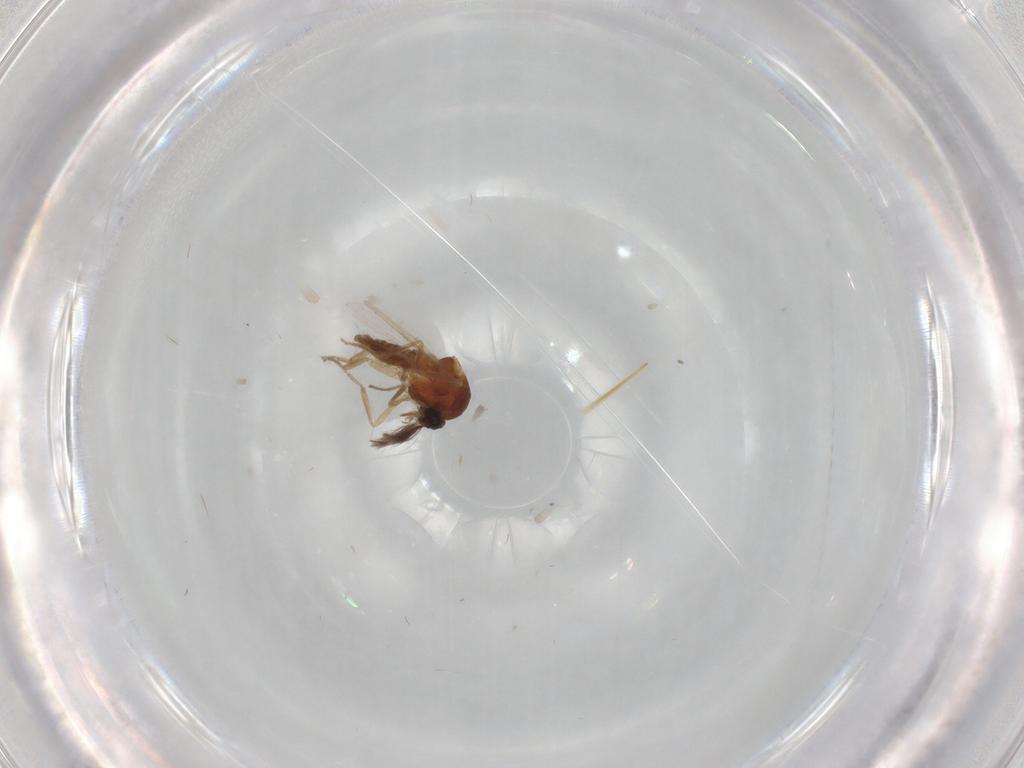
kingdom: Animalia
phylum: Arthropoda
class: Insecta
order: Diptera
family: Ceratopogonidae
